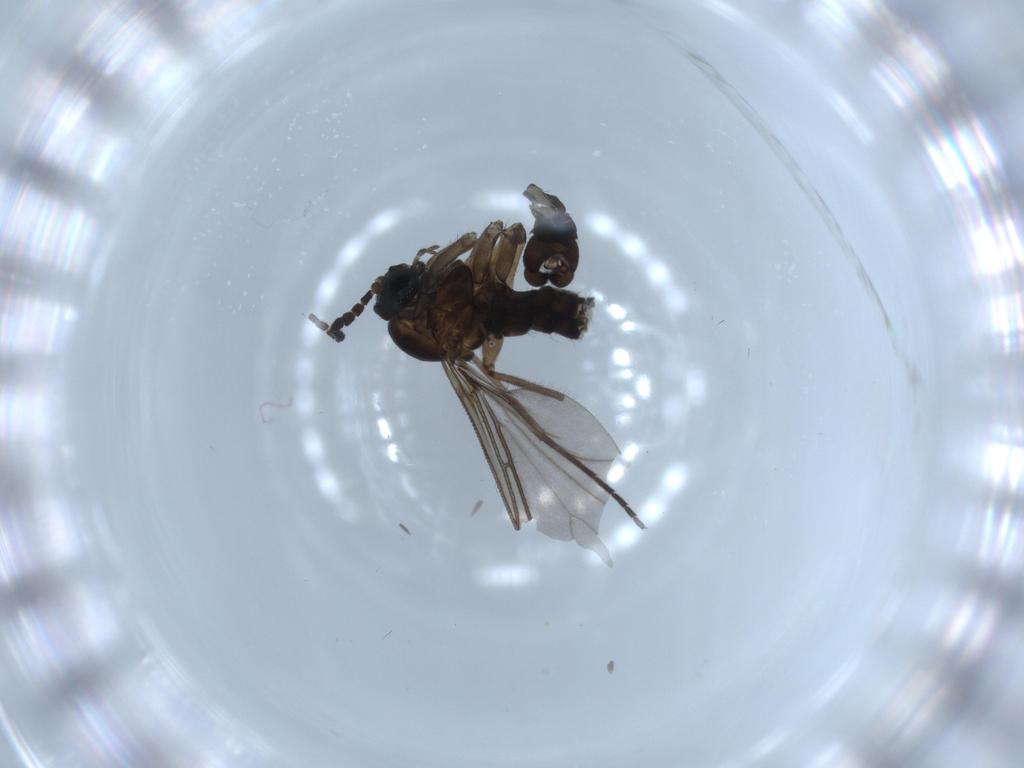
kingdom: Animalia
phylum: Arthropoda
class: Insecta
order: Diptera
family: Sciaridae
